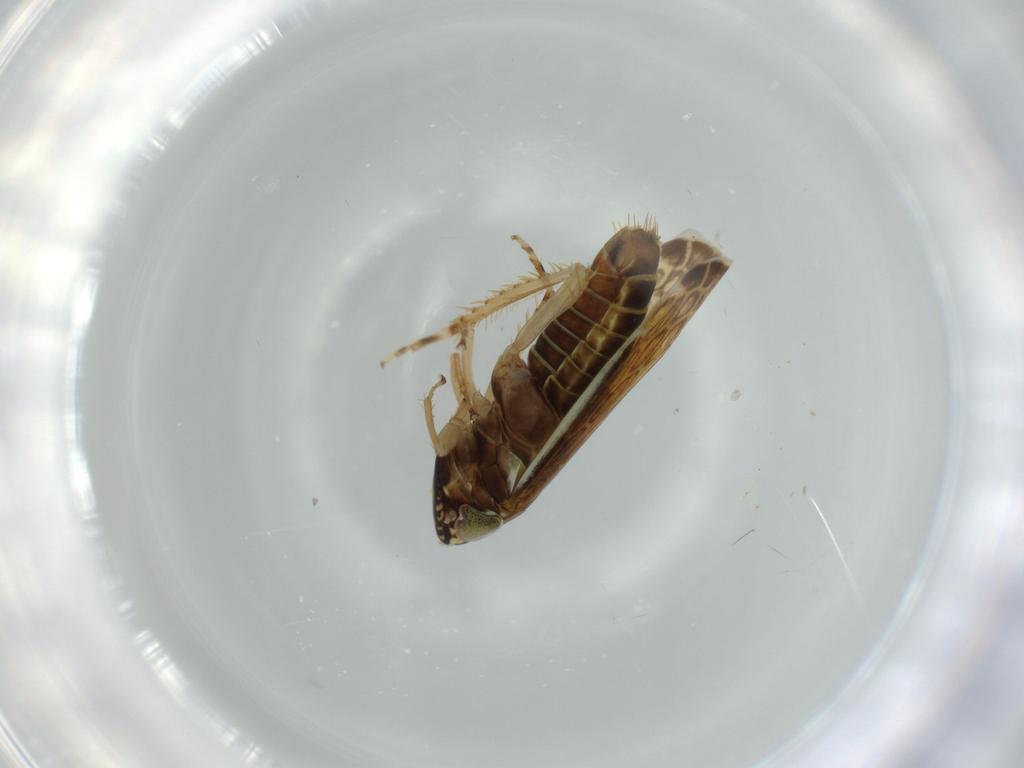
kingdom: Animalia
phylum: Arthropoda
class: Insecta
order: Hemiptera
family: Cicadellidae
